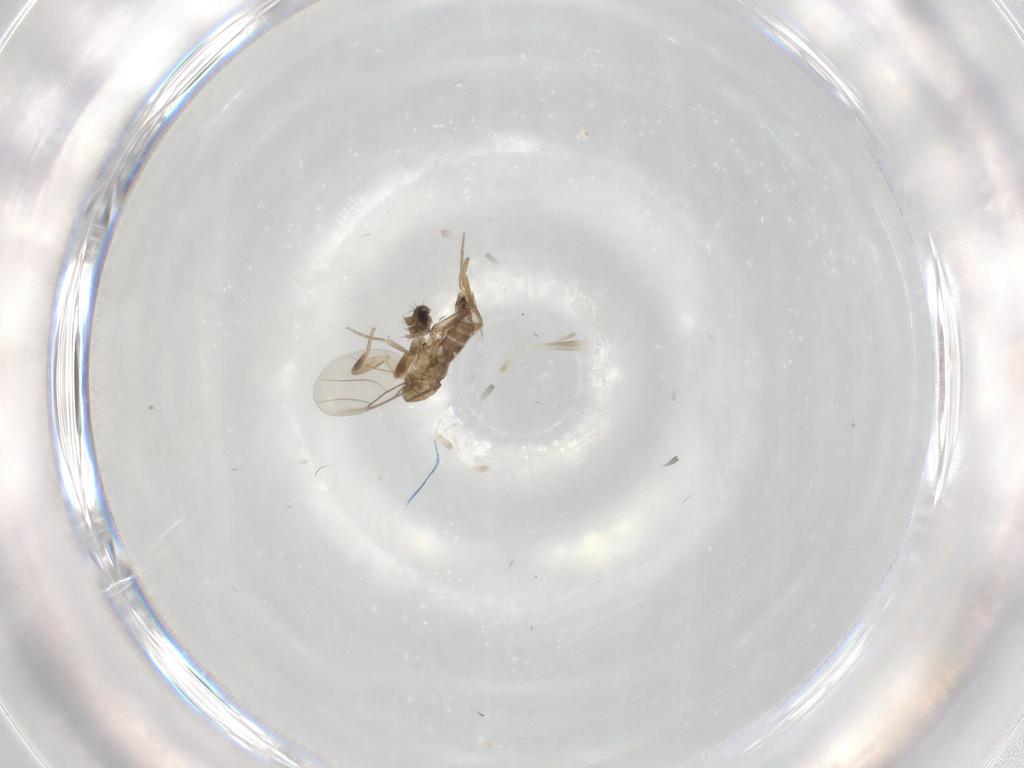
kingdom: Animalia
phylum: Arthropoda
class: Insecta
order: Diptera
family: Phoridae
